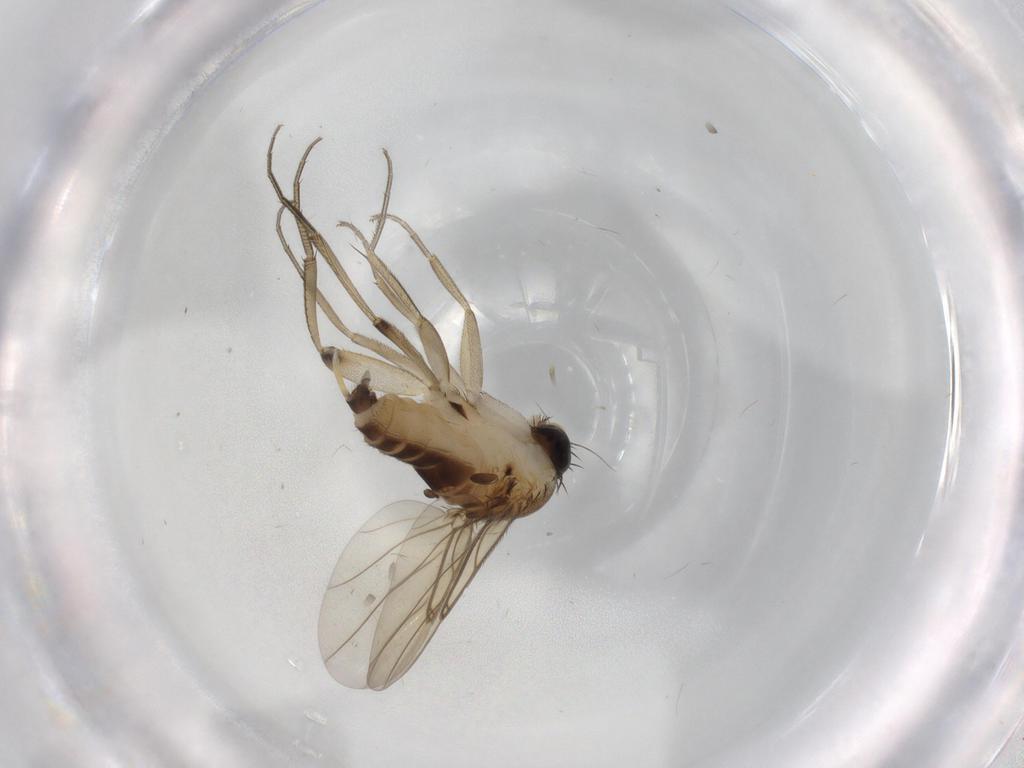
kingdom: Animalia
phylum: Arthropoda
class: Insecta
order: Diptera
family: Phoridae
